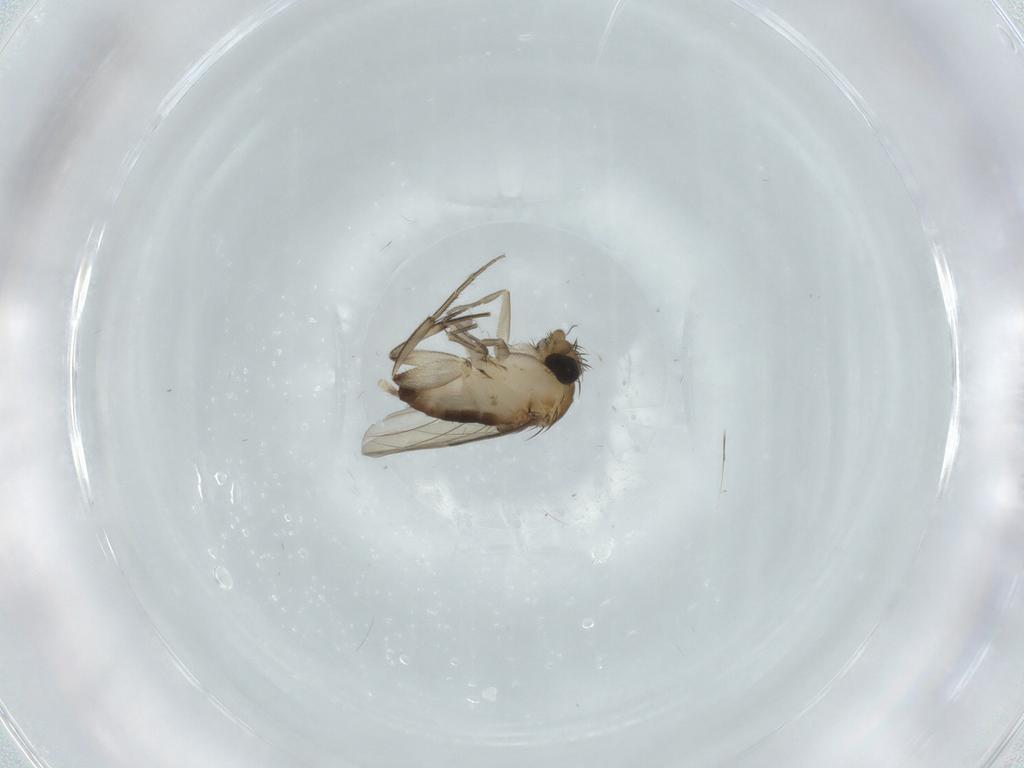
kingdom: Animalia
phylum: Arthropoda
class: Insecta
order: Diptera
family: Phoridae
